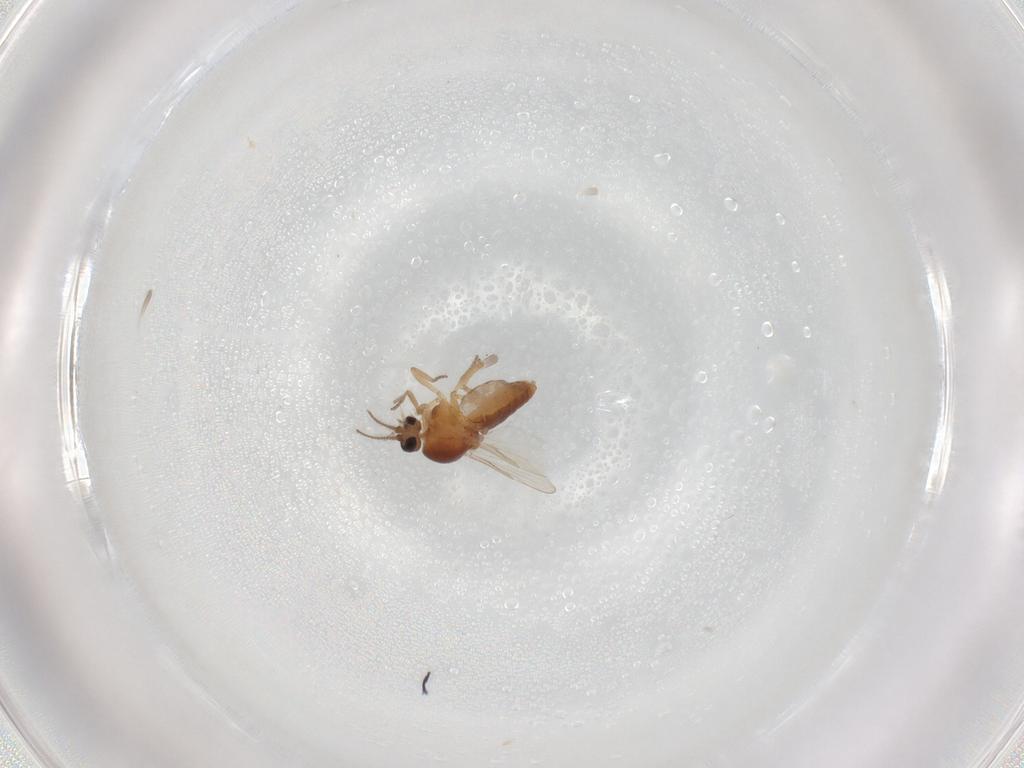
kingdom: Animalia
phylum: Arthropoda
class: Insecta
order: Diptera
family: Ceratopogonidae
